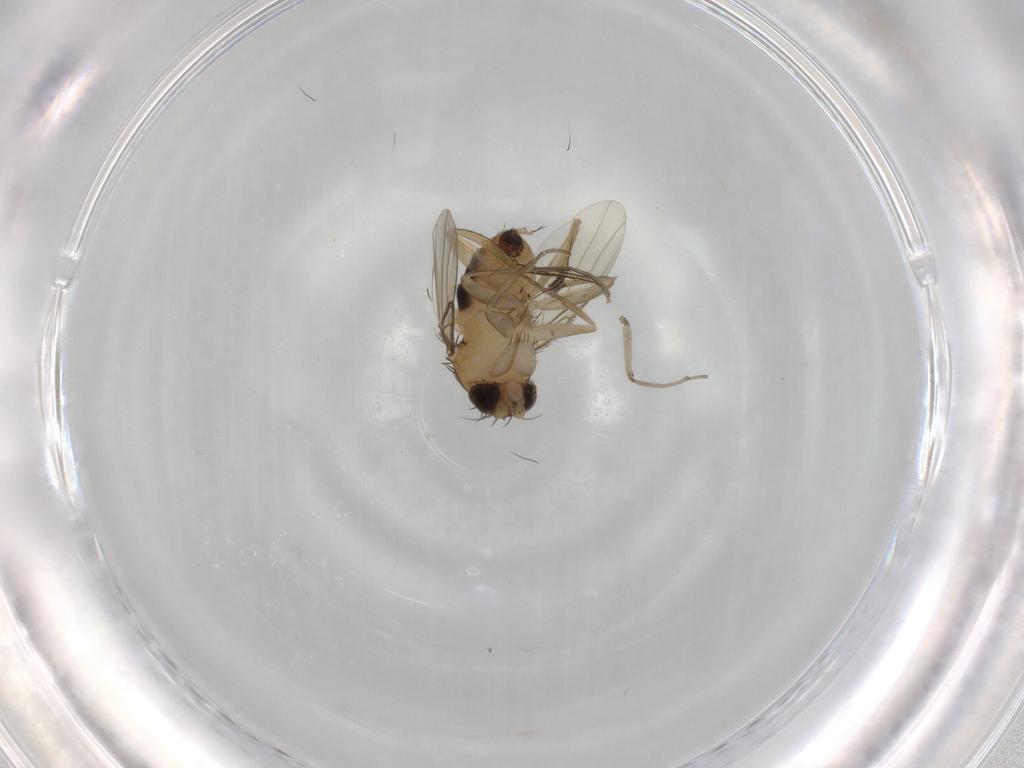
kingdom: Animalia
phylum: Arthropoda
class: Insecta
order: Diptera
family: Phoridae
